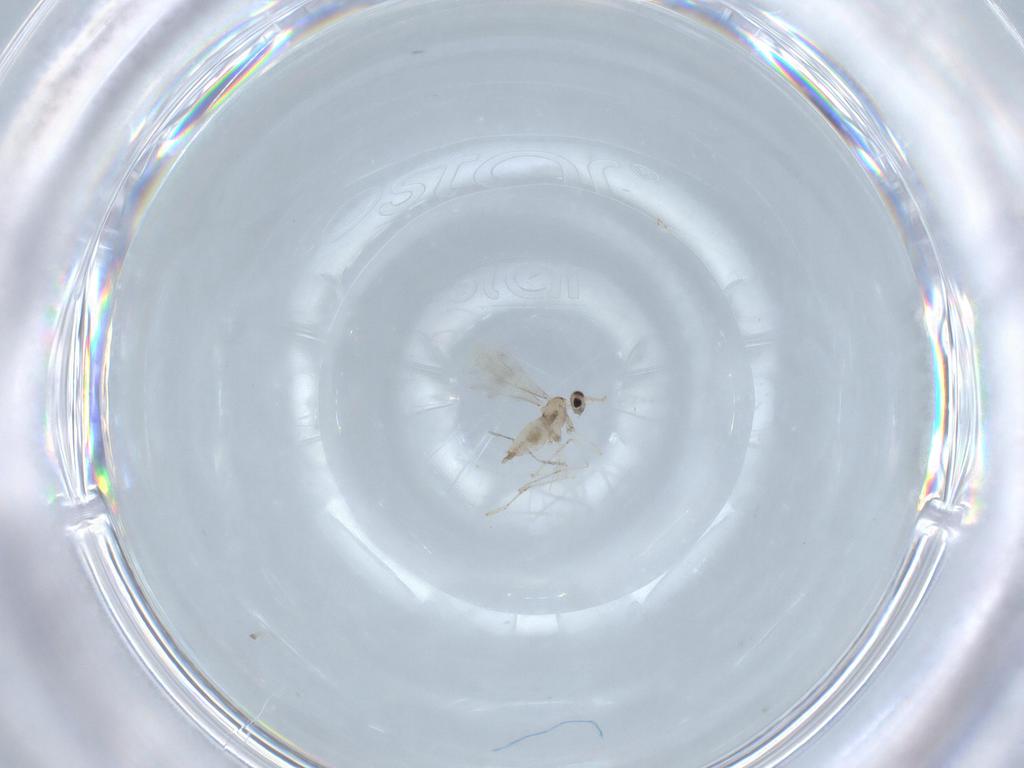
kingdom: Animalia
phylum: Arthropoda
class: Insecta
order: Diptera
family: Cecidomyiidae
